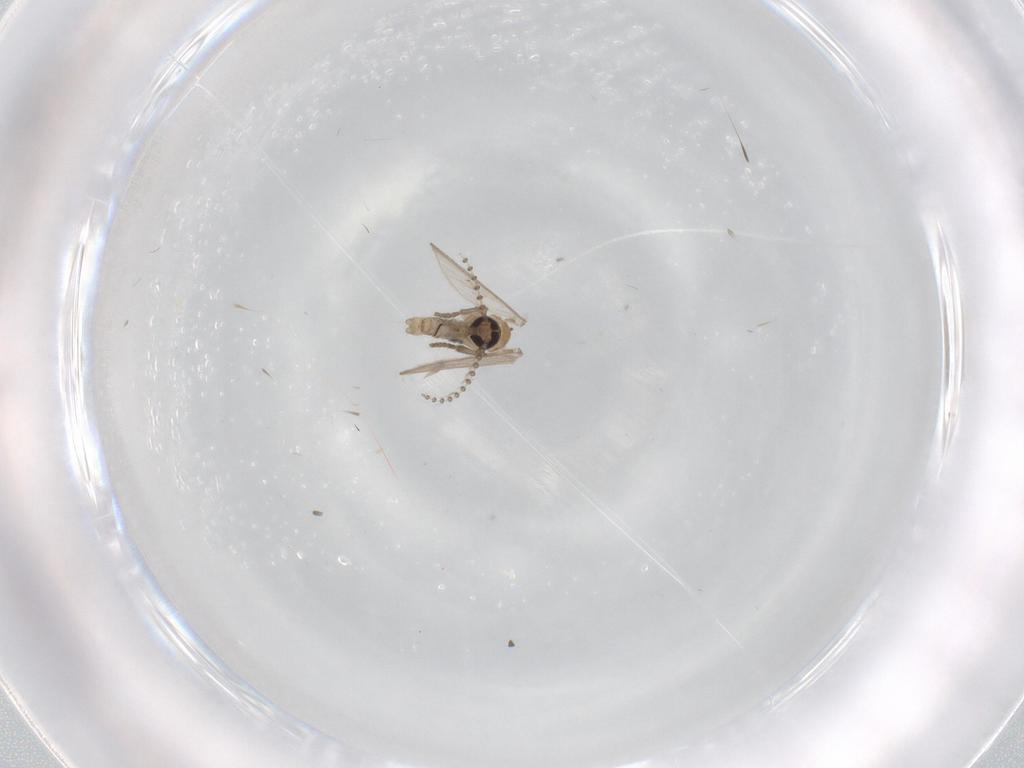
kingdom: Animalia
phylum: Arthropoda
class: Insecta
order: Diptera
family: Psychodidae
